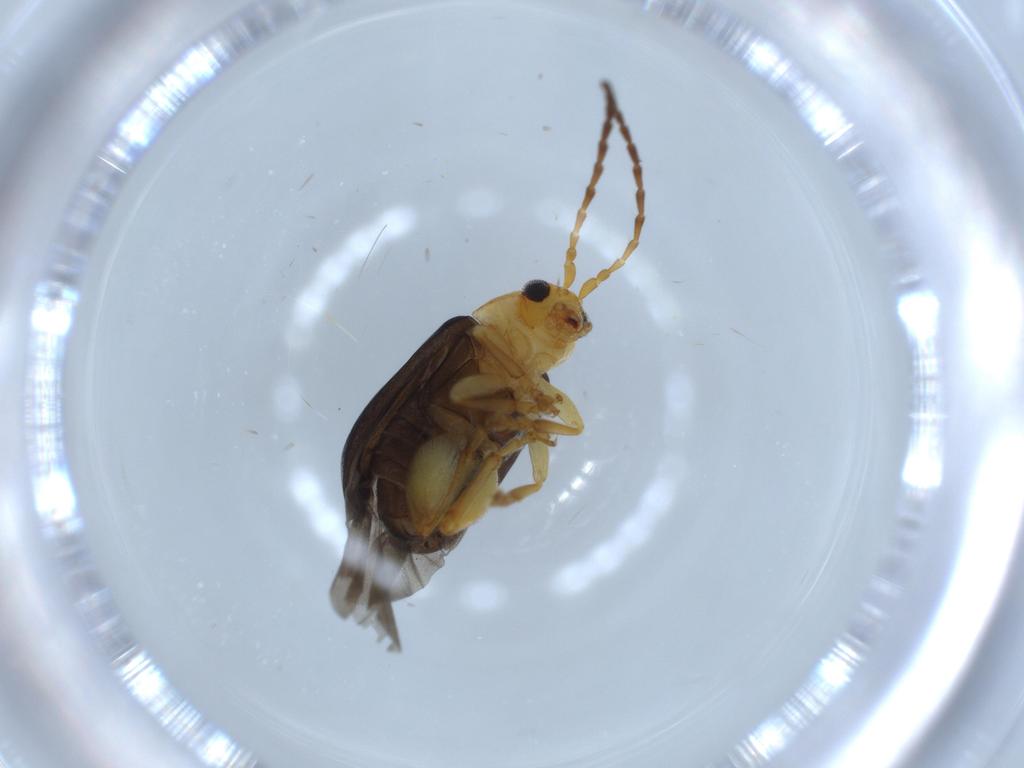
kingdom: Animalia
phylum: Arthropoda
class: Insecta
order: Coleoptera
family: Chrysomelidae
